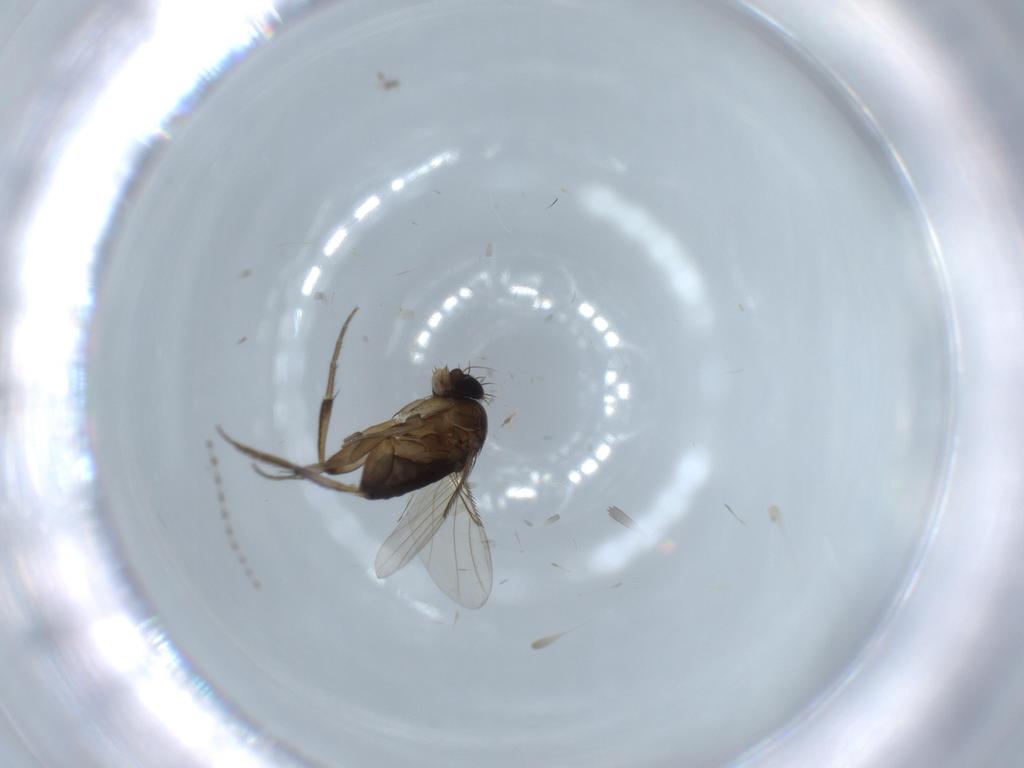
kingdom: Animalia
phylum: Arthropoda
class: Insecta
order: Diptera
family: Phoridae
